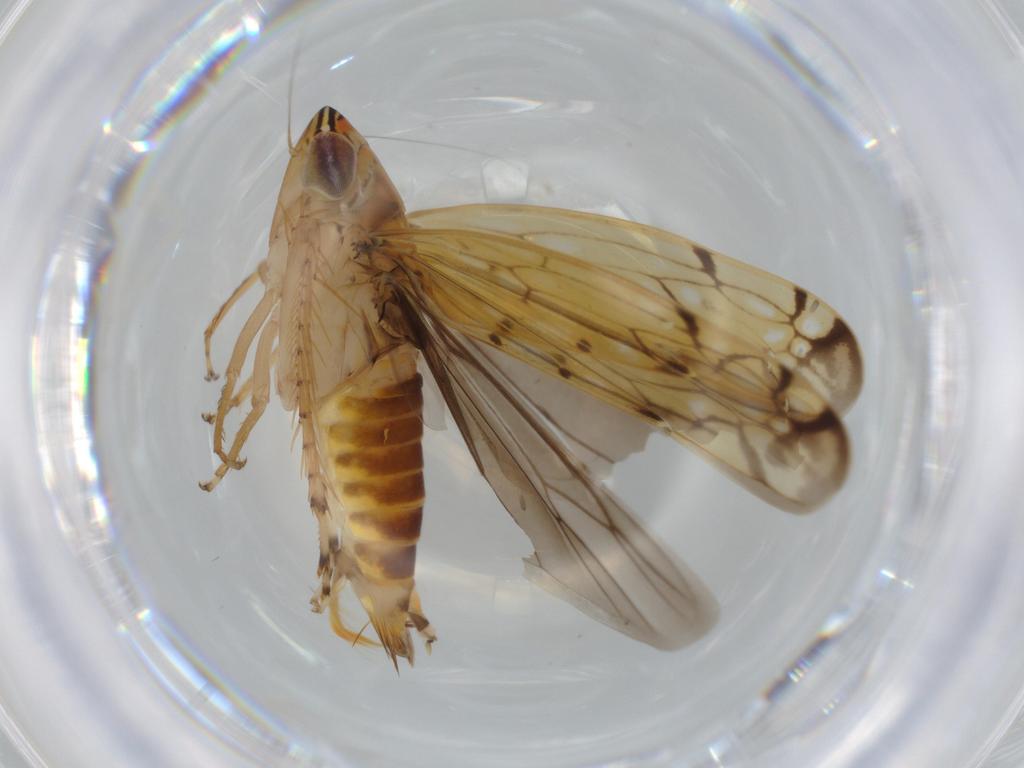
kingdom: Animalia
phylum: Arthropoda
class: Insecta
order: Hemiptera
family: Cicadellidae
